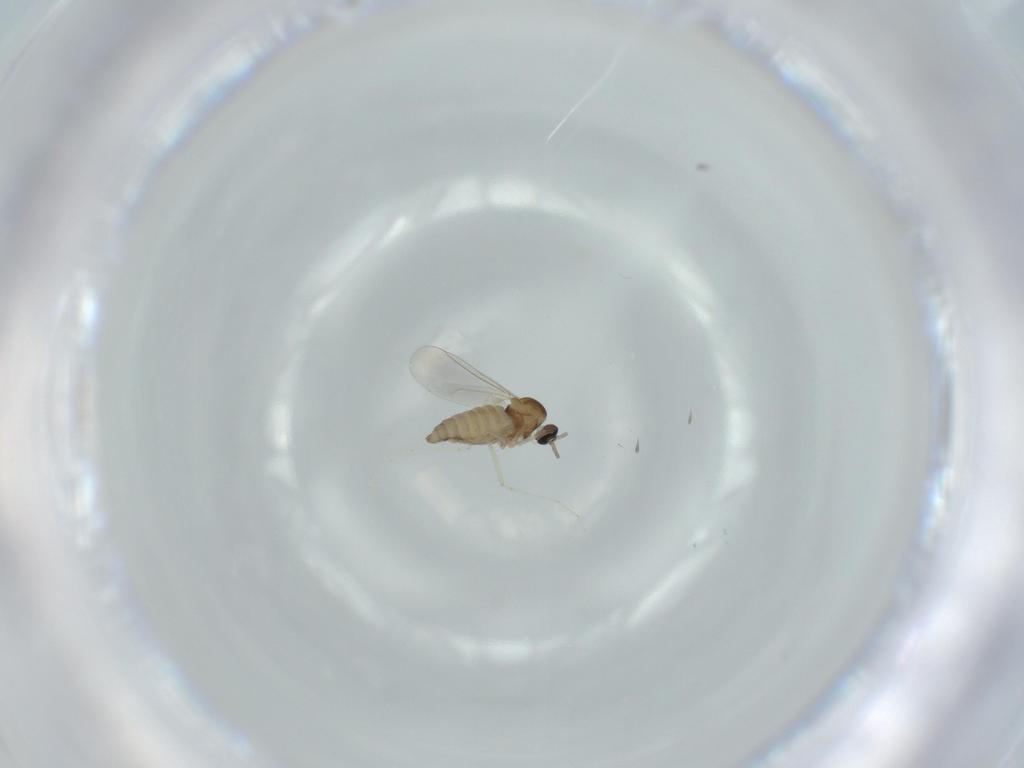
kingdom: Animalia
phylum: Arthropoda
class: Insecta
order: Diptera
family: Cecidomyiidae
